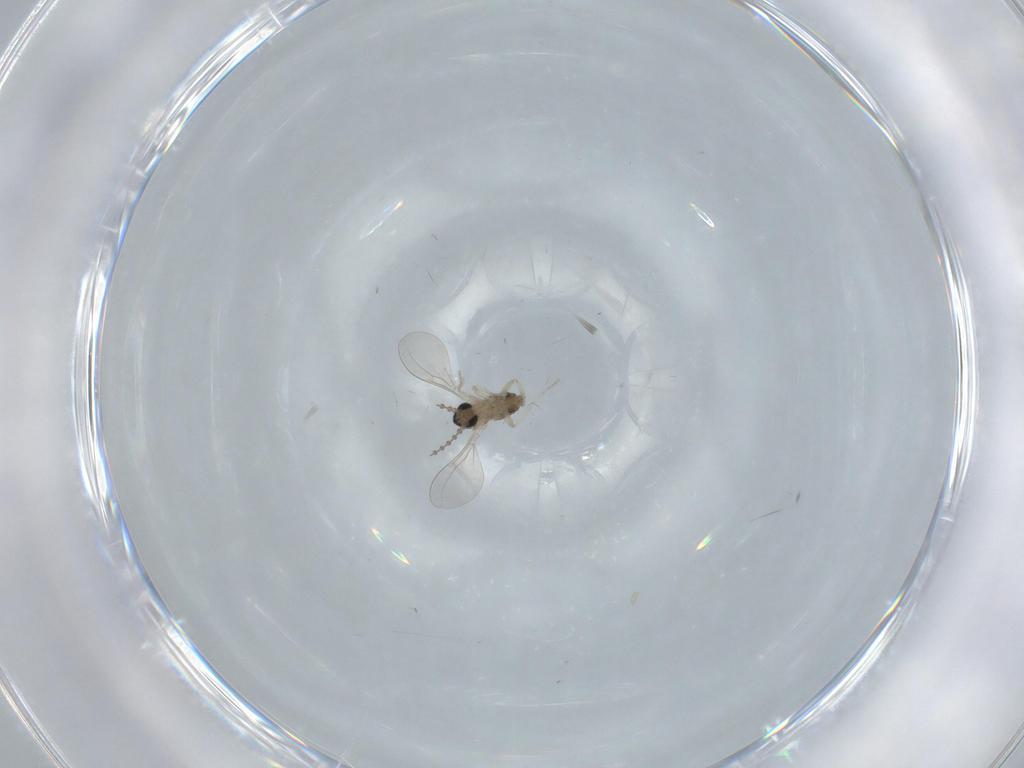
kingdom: Animalia
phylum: Arthropoda
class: Insecta
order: Diptera
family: Cecidomyiidae
